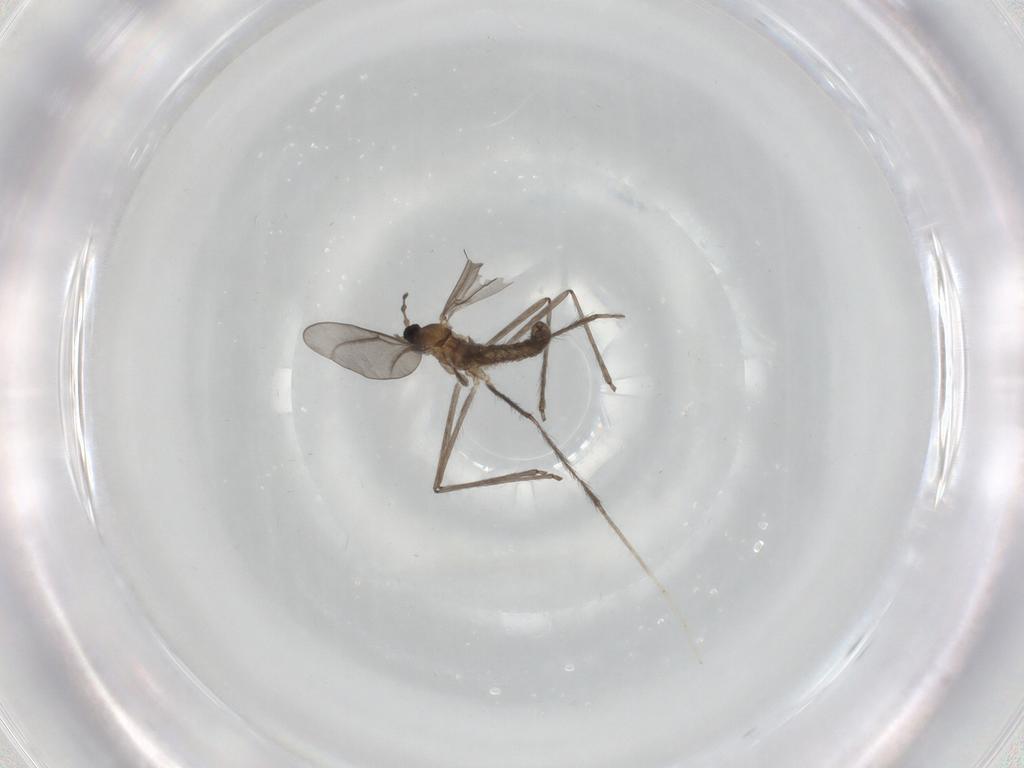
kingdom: Animalia
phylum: Arthropoda
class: Insecta
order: Diptera
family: Cecidomyiidae
